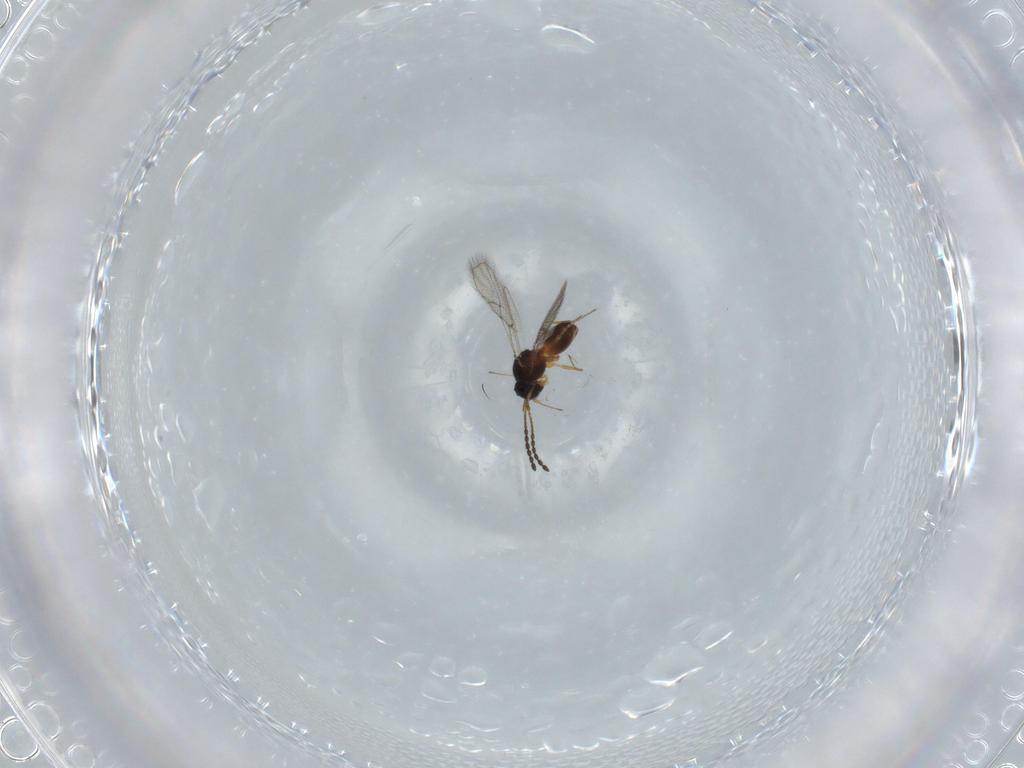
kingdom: Animalia
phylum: Arthropoda
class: Insecta
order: Hymenoptera
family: Figitidae
